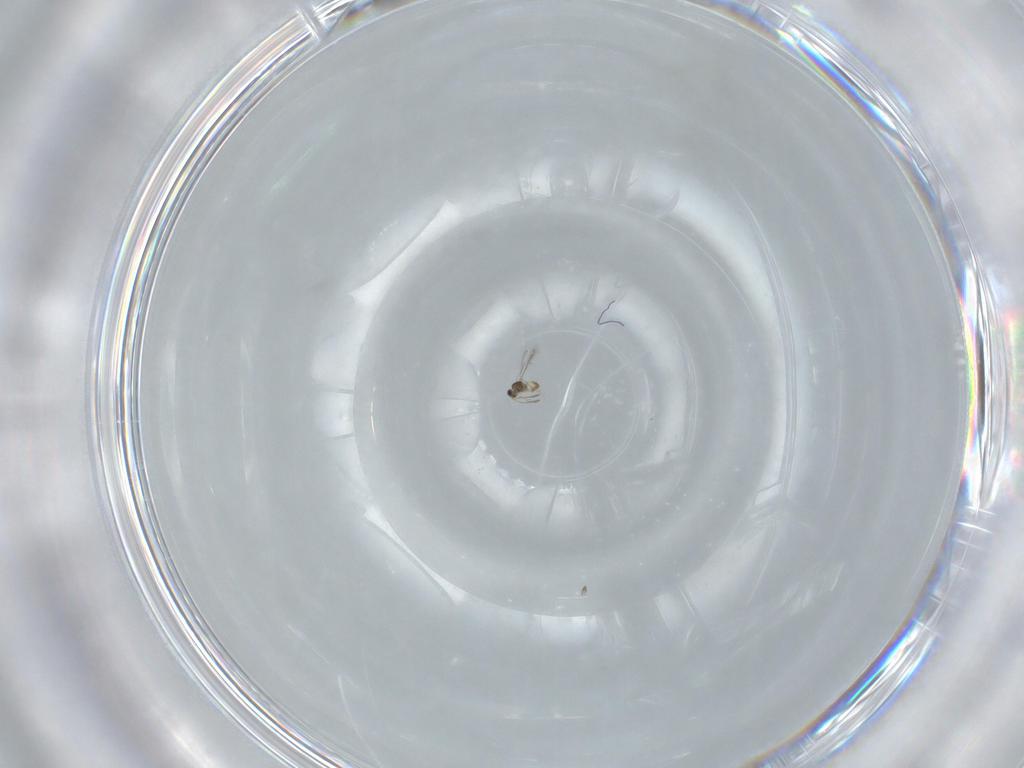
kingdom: Animalia
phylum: Arthropoda
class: Insecta
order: Hymenoptera
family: Mymaridae
